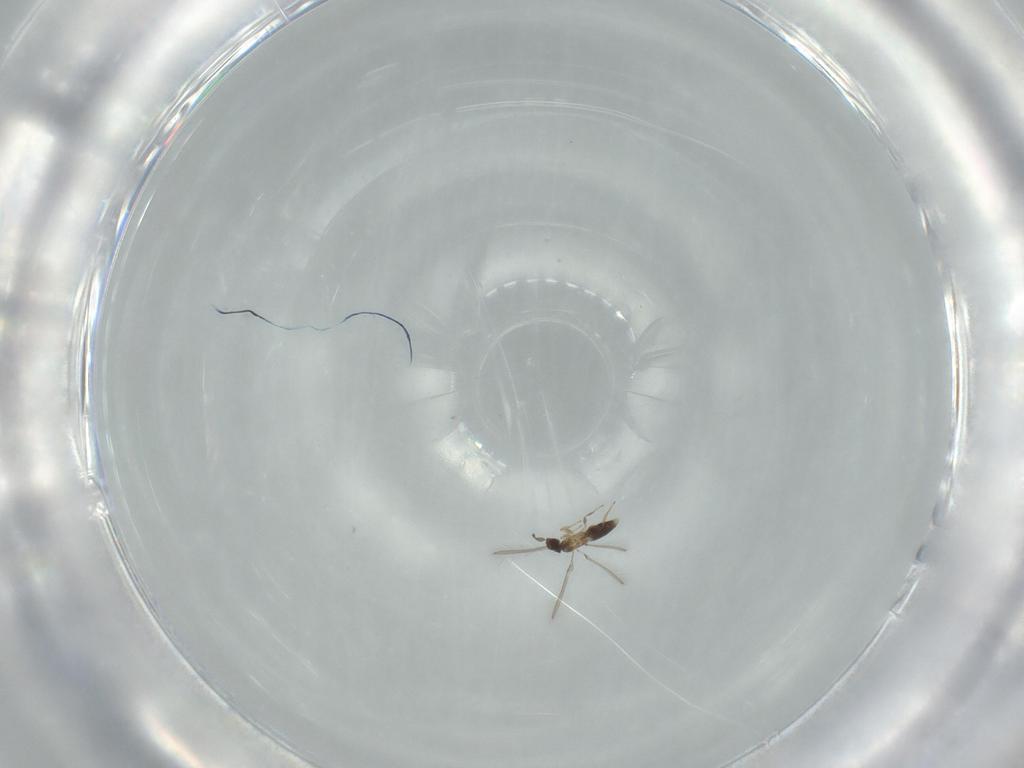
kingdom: Animalia
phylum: Arthropoda
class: Insecta
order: Hymenoptera
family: Mymaridae
